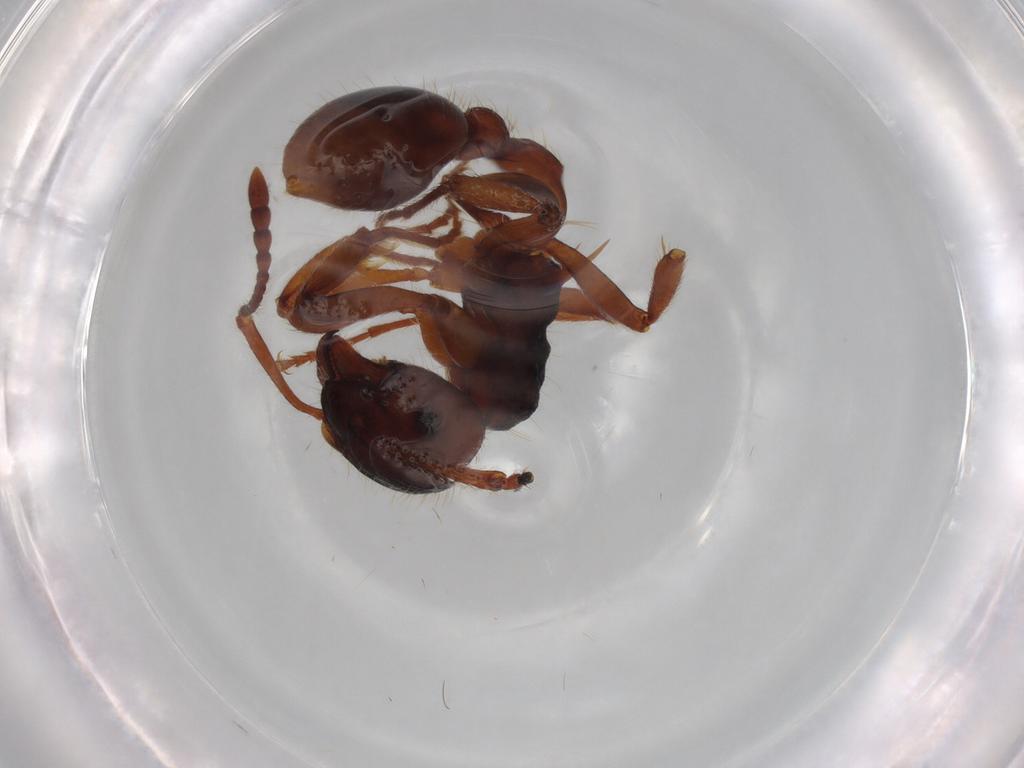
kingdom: Animalia
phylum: Arthropoda
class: Insecta
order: Hymenoptera
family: Formicidae
